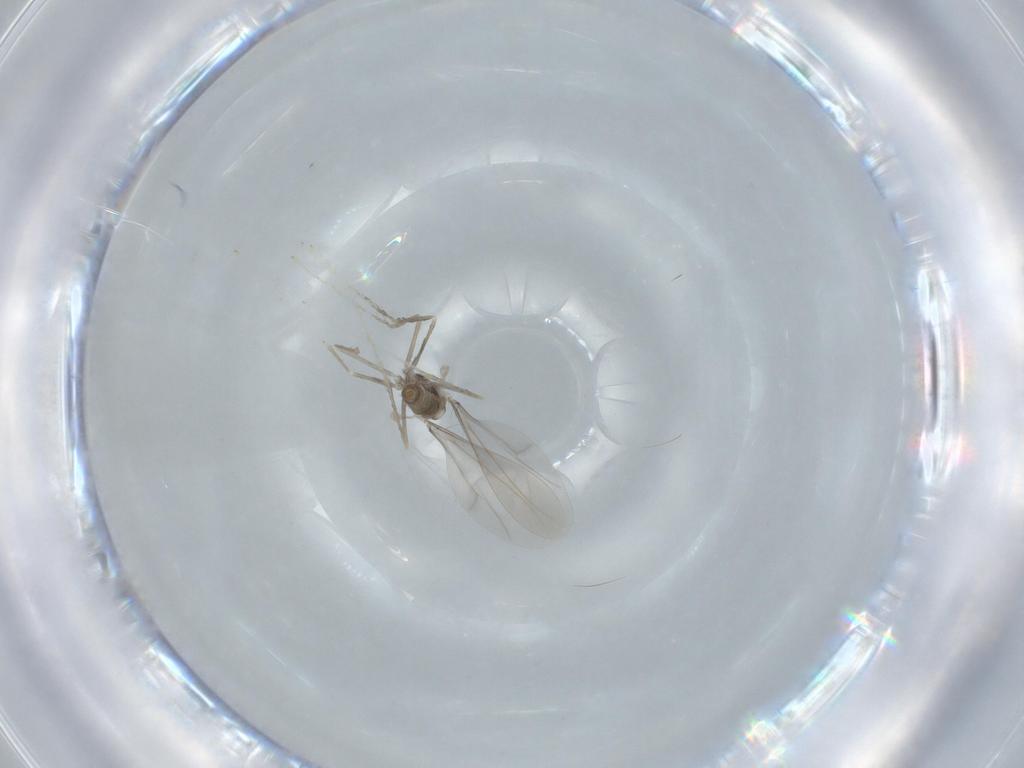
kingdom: Animalia
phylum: Arthropoda
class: Insecta
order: Diptera
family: Cecidomyiidae
